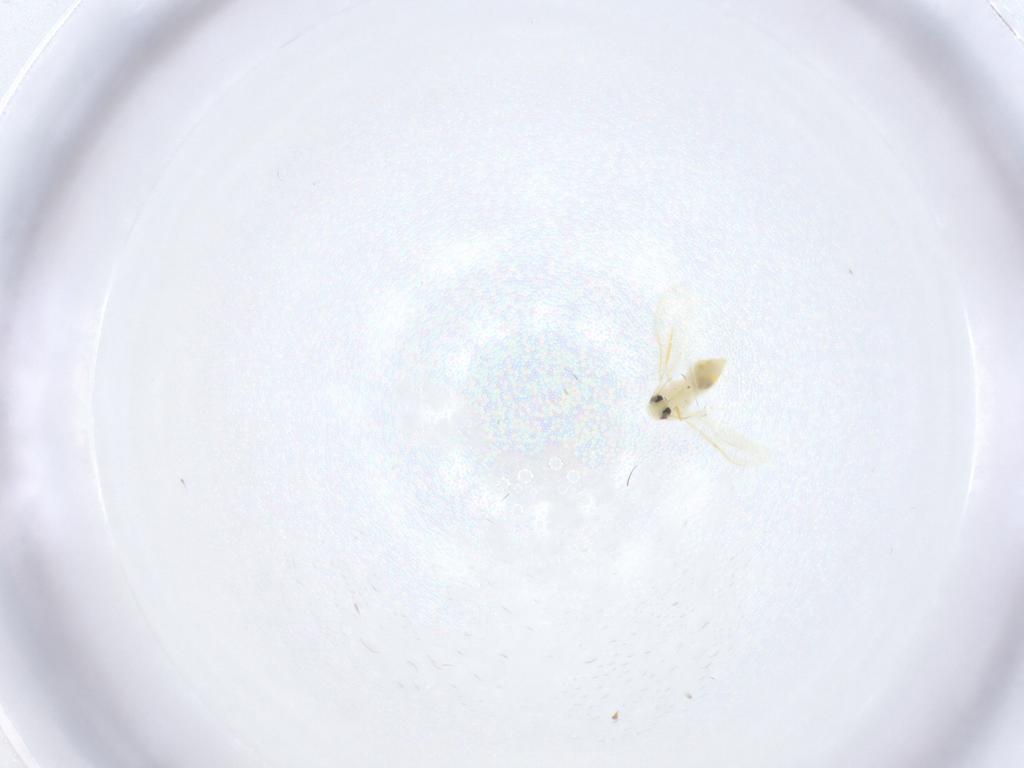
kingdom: Animalia
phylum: Arthropoda
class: Insecta
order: Hemiptera
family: Aleyrodidae
